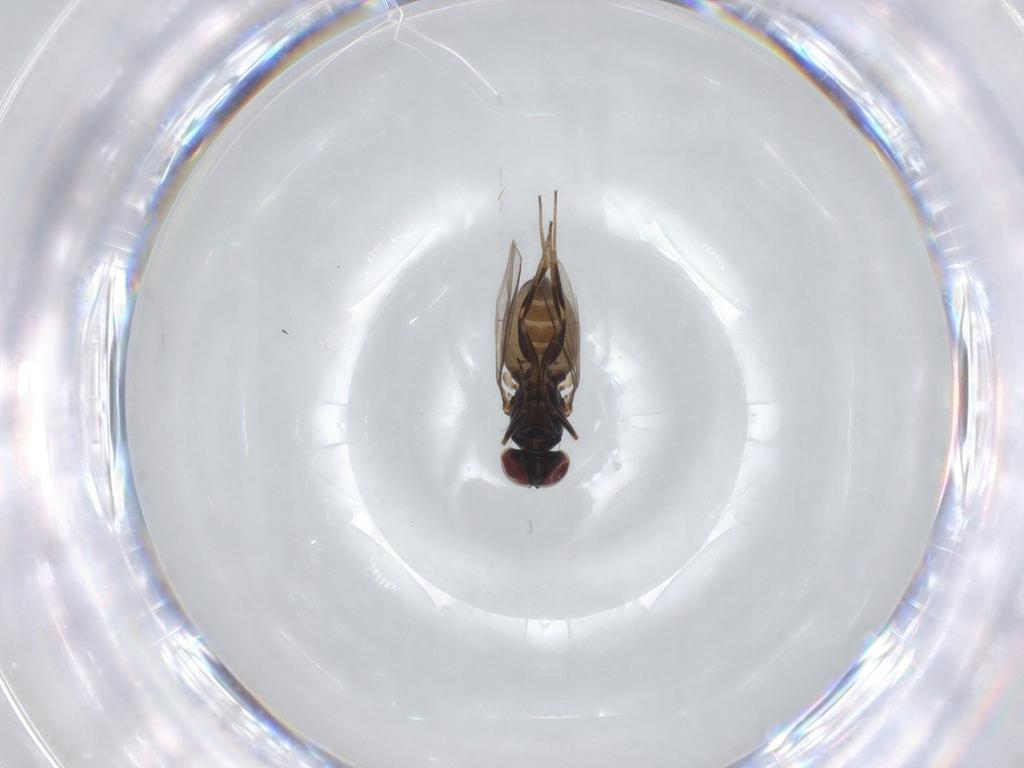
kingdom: Animalia
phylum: Arthropoda
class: Insecta
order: Diptera
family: Dolichopodidae
